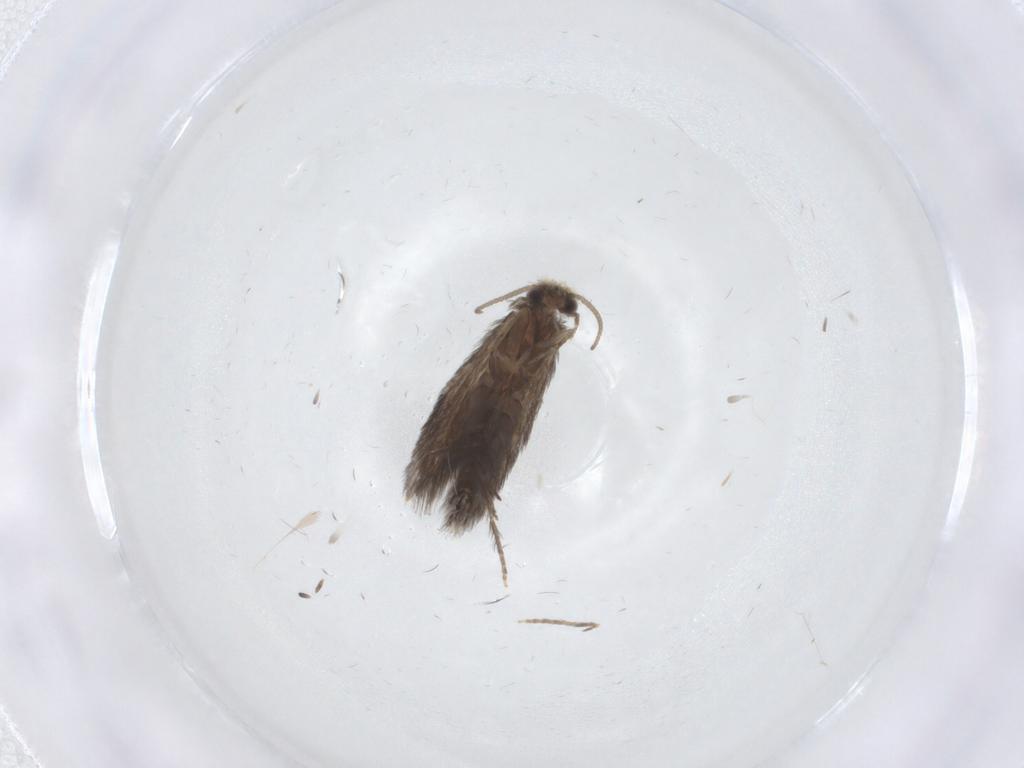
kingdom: Animalia
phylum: Arthropoda
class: Insecta
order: Trichoptera
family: Hydroptilidae
